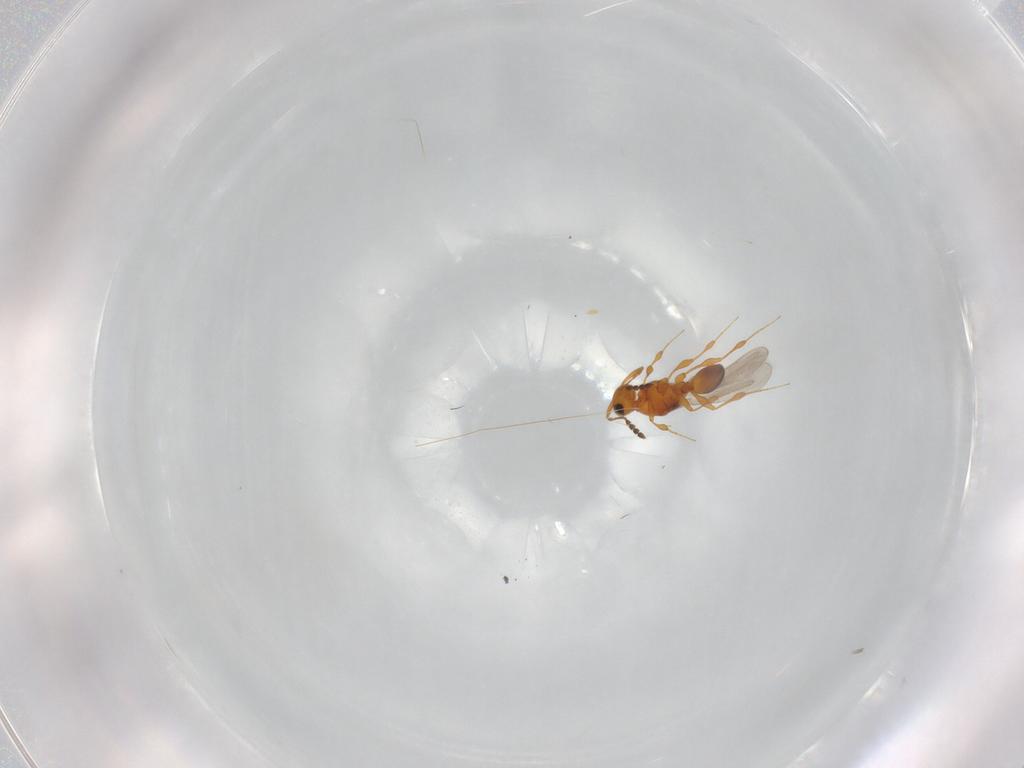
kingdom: Animalia
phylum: Arthropoda
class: Insecta
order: Hymenoptera
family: Platygastridae
